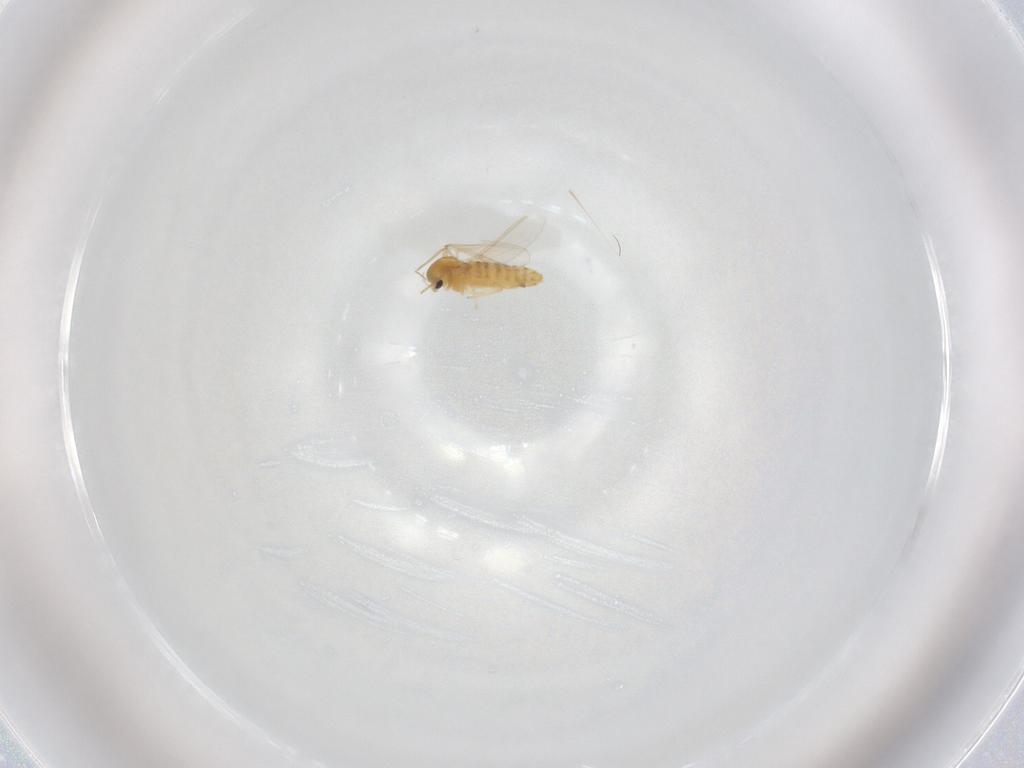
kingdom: Animalia
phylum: Arthropoda
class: Insecta
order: Diptera
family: Chironomidae
